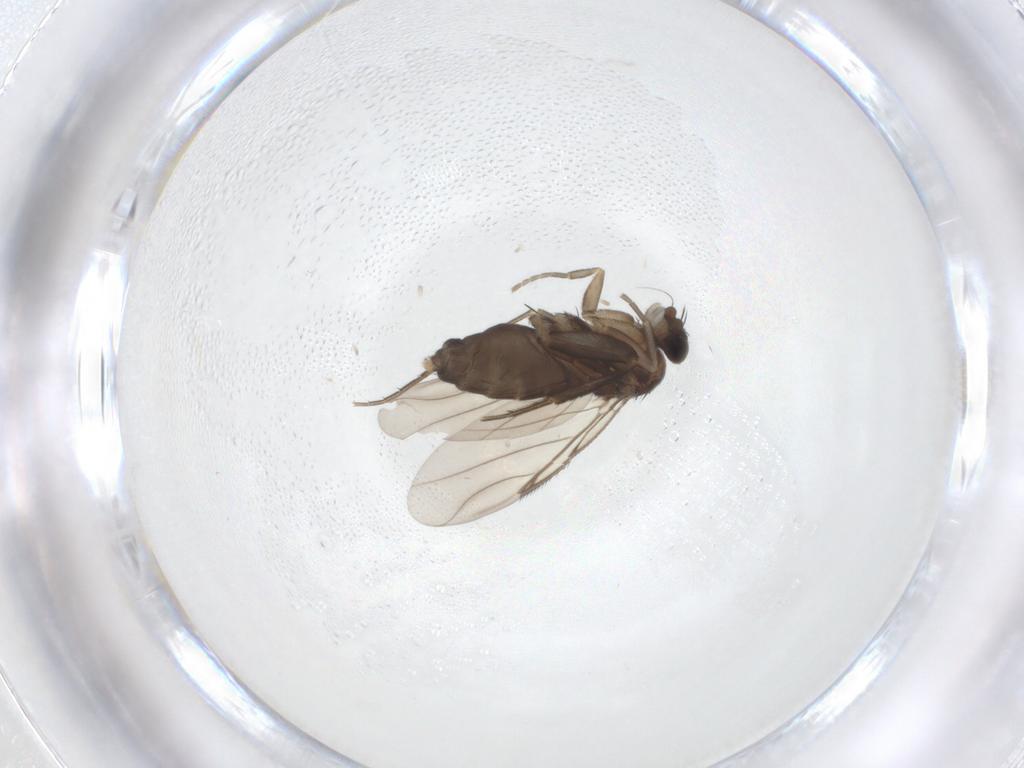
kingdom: Animalia
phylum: Arthropoda
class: Insecta
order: Diptera
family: Phoridae
